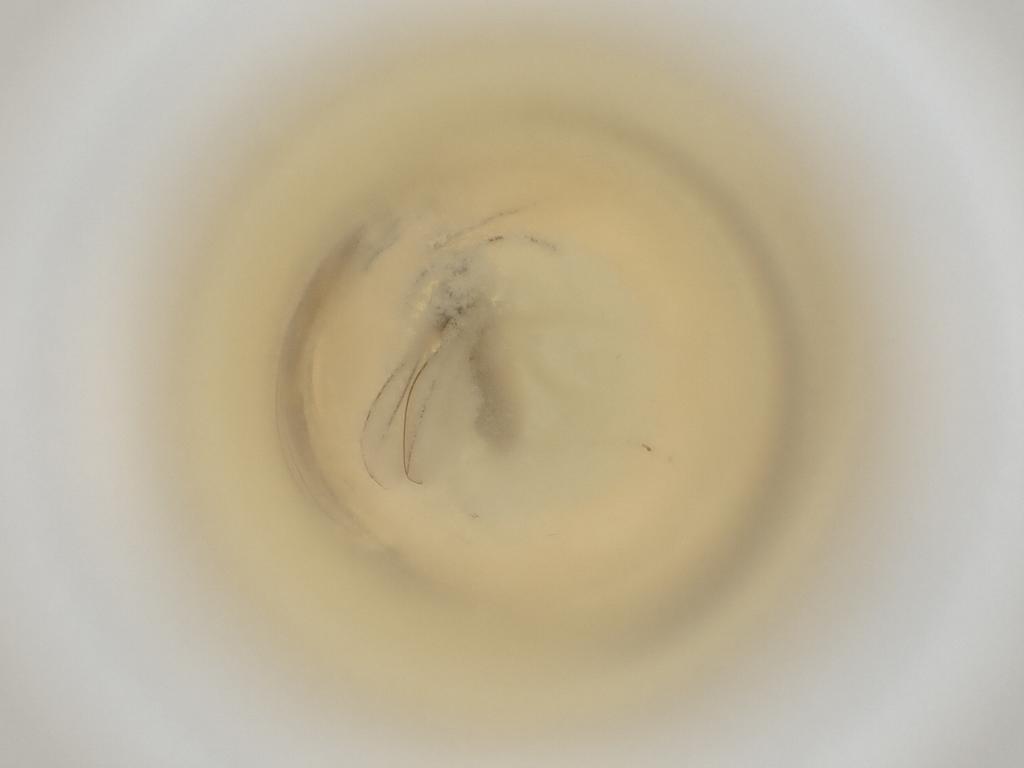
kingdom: Animalia
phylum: Arthropoda
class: Insecta
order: Diptera
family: Cecidomyiidae
